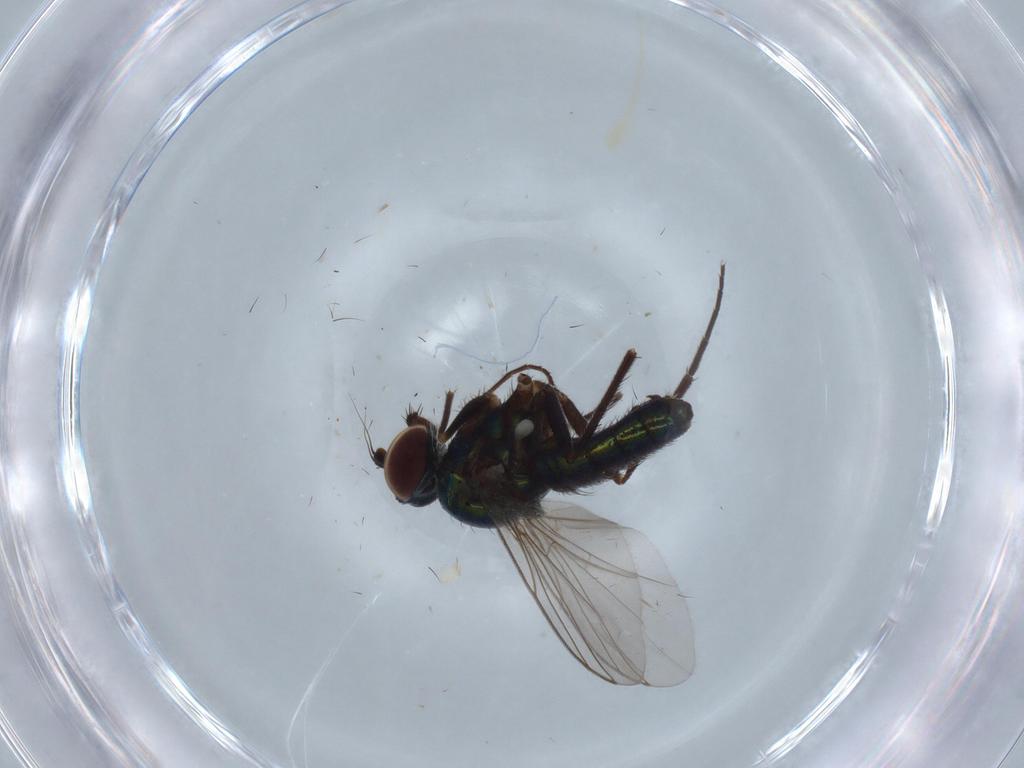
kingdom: Animalia
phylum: Arthropoda
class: Insecta
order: Diptera
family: Dolichopodidae
